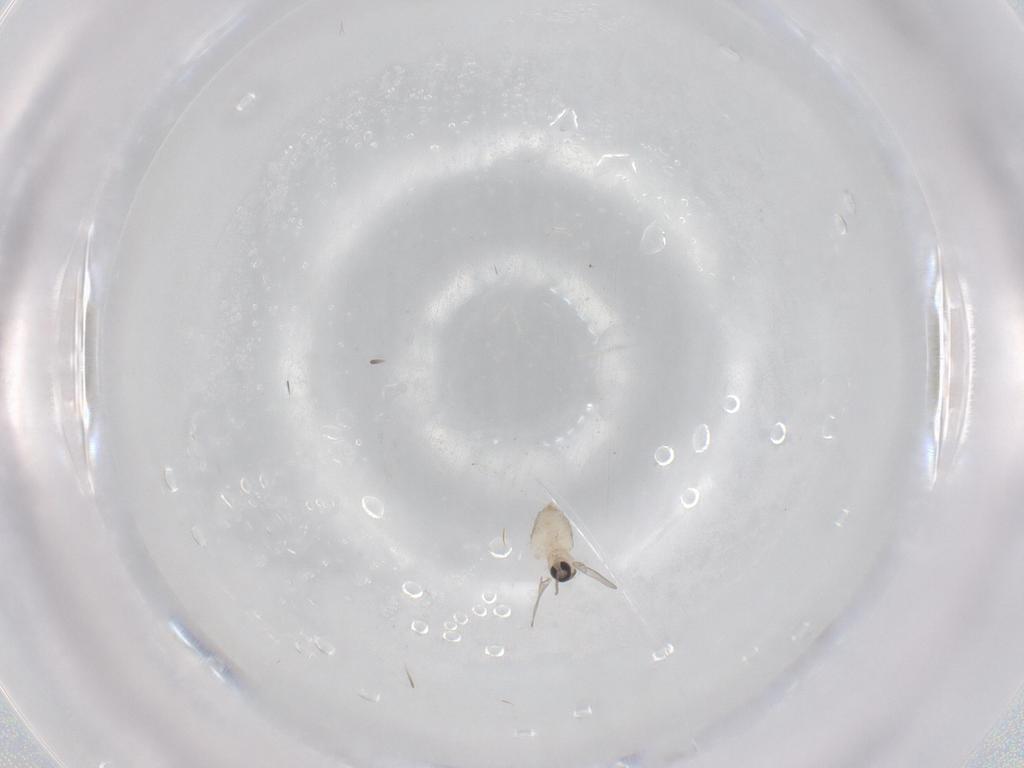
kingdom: Animalia
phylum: Arthropoda
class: Insecta
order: Diptera
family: Cecidomyiidae
